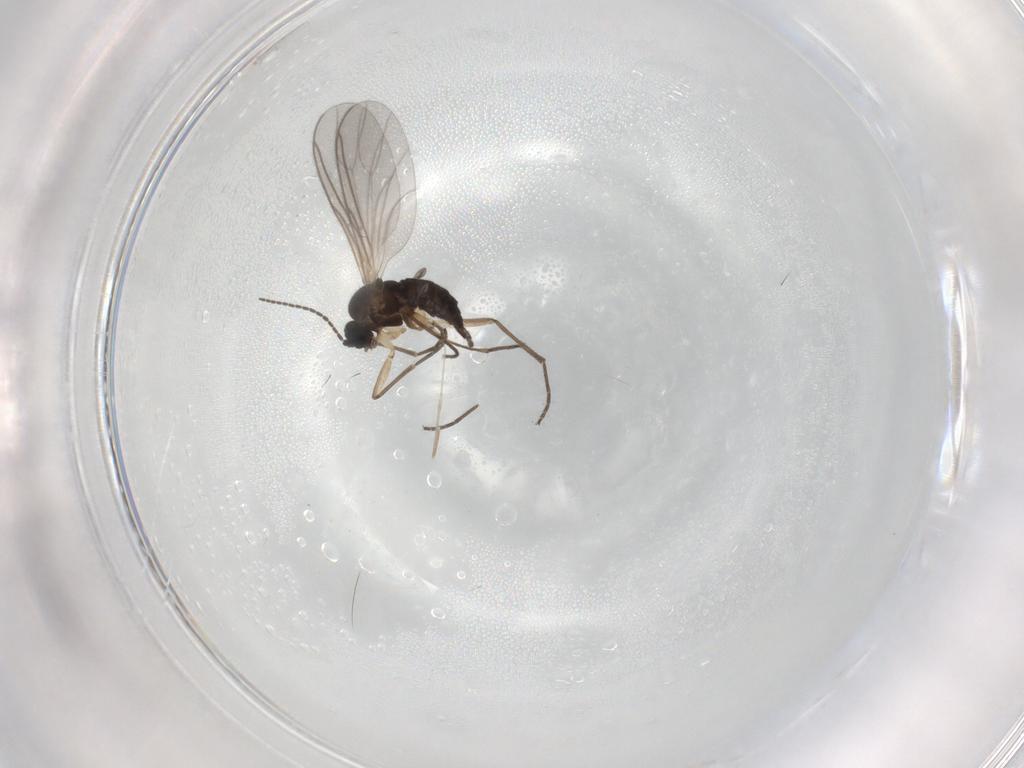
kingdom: Animalia
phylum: Arthropoda
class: Insecta
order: Diptera
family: Sciaridae
